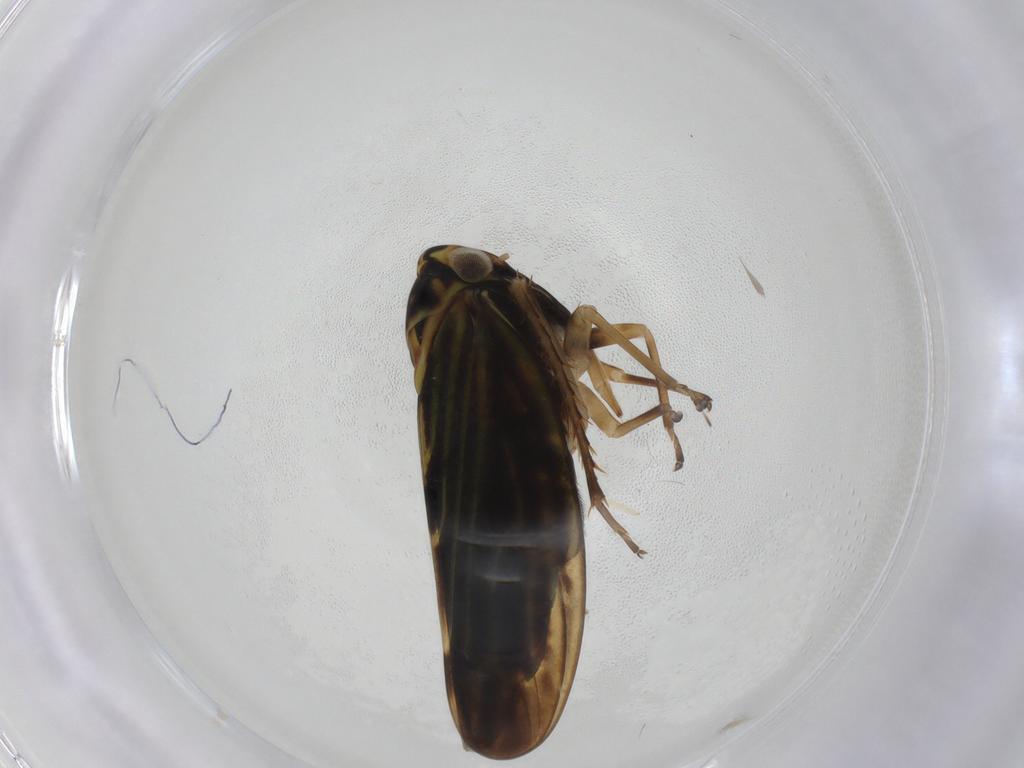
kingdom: Animalia
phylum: Arthropoda
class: Insecta
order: Hemiptera
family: Cicadellidae
